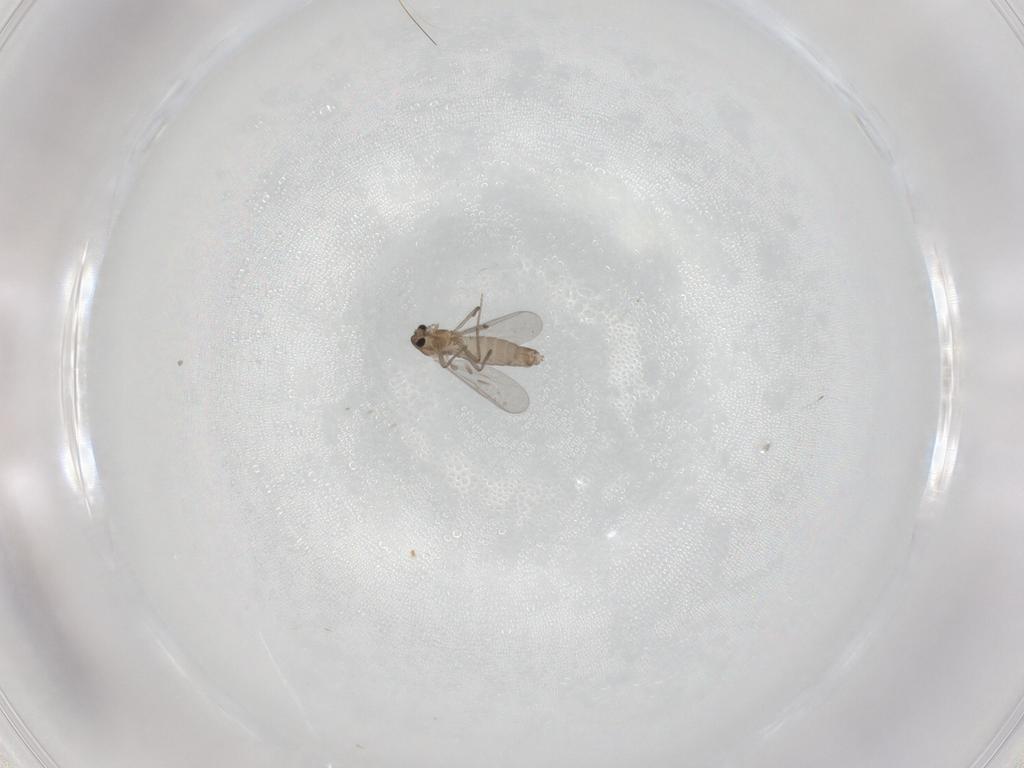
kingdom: Animalia
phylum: Arthropoda
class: Insecta
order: Diptera
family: Chironomidae
